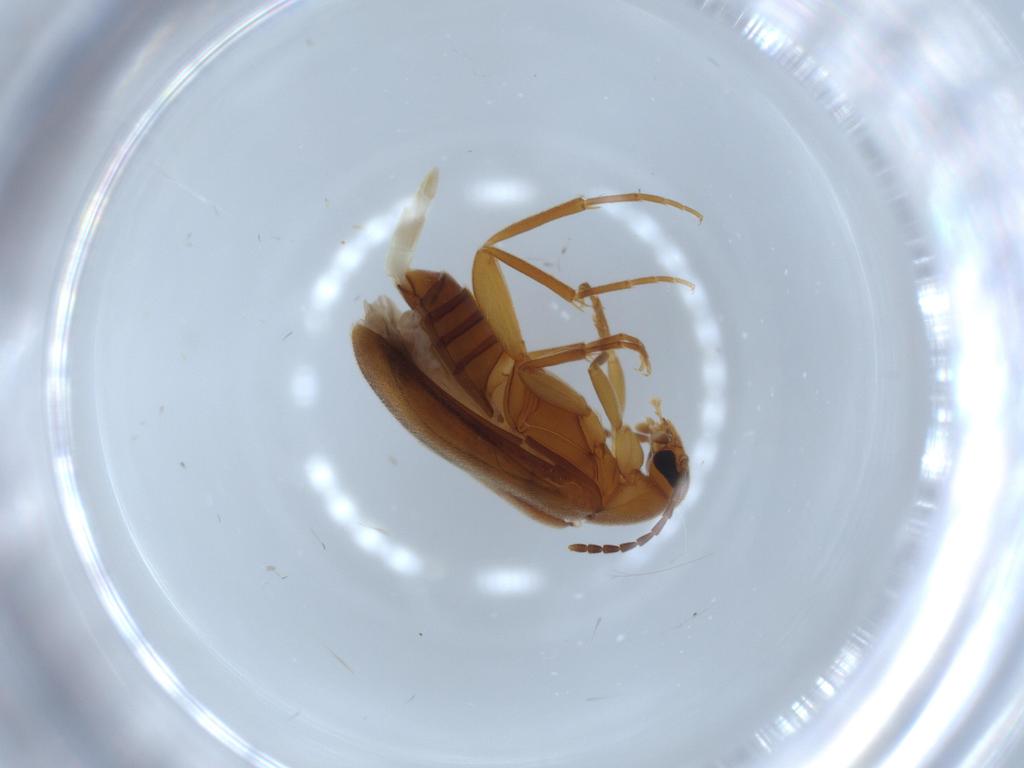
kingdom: Animalia
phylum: Arthropoda
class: Insecta
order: Coleoptera
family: Scraptiidae
